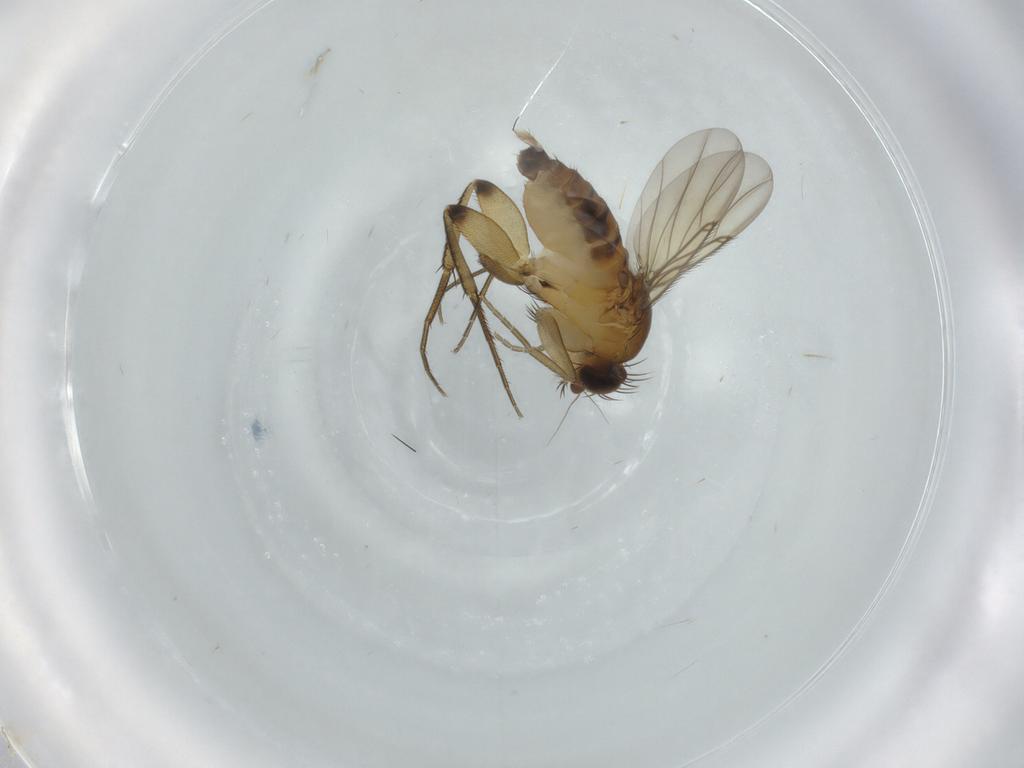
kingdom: Animalia
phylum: Arthropoda
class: Insecta
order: Diptera
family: Phoridae
